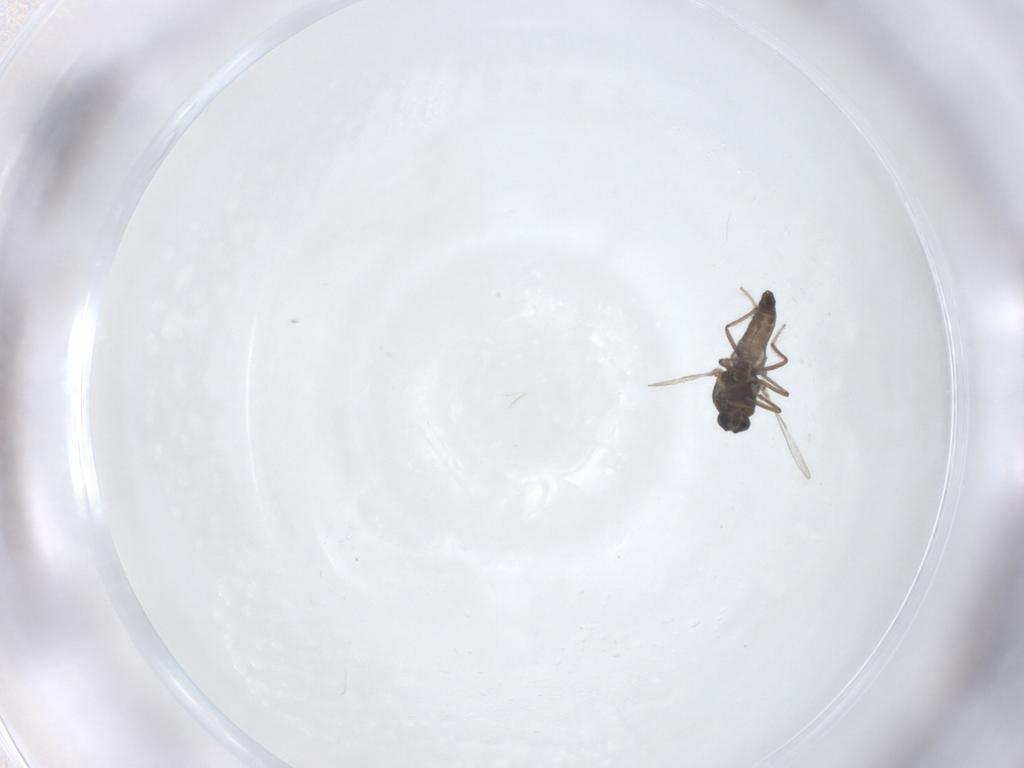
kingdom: Animalia
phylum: Arthropoda
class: Insecta
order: Diptera
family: Ceratopogonidae
